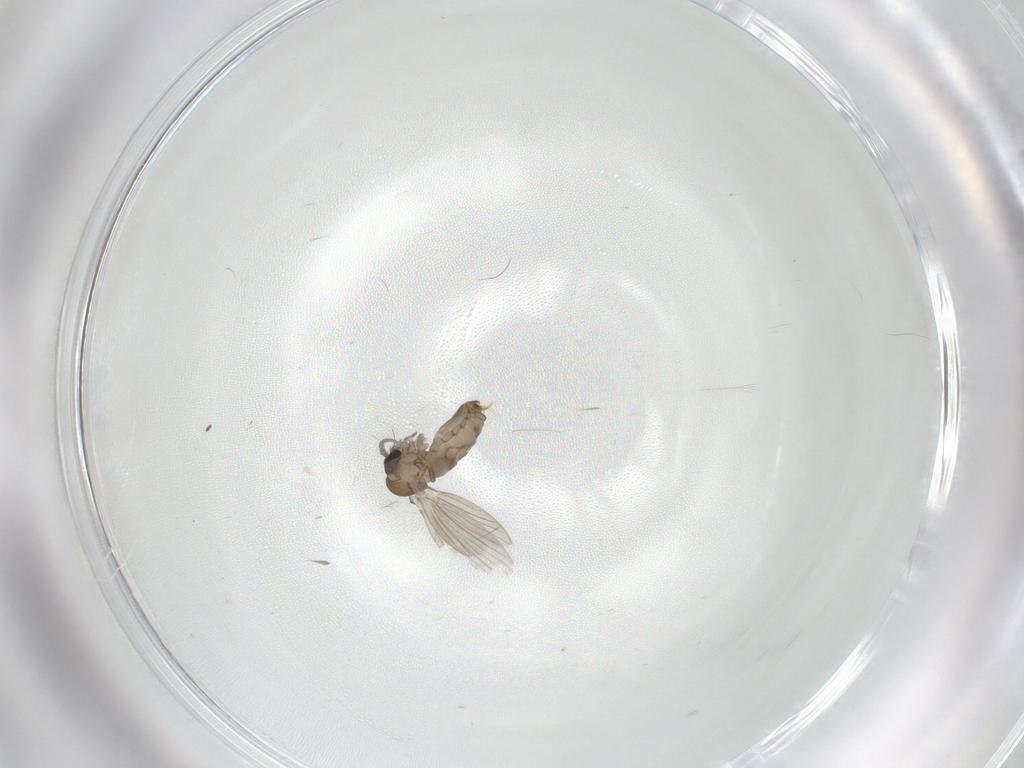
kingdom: Animalia
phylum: Arthropoda
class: Insecta
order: Diptera
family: Psychodidae
